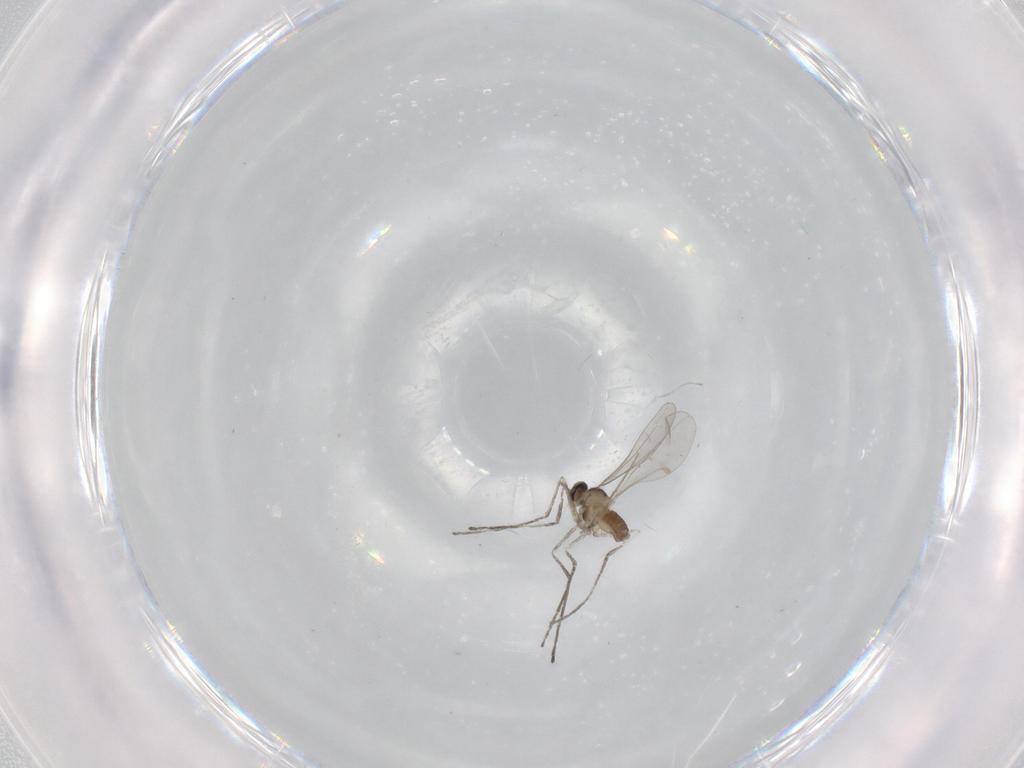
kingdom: Animalia
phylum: Arthropoda
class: Insecta
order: Diptera
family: Cecidomyiidae
